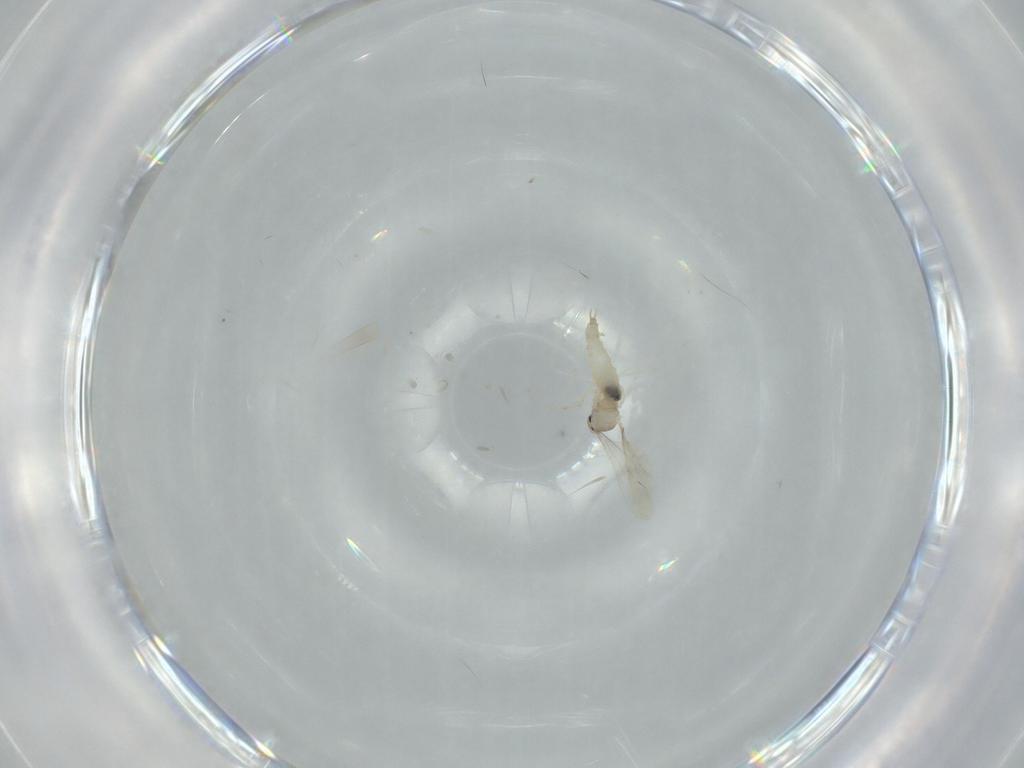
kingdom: Animalia
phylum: Arthropoda
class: Insecta
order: Diptera
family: Cecidomyiidae
